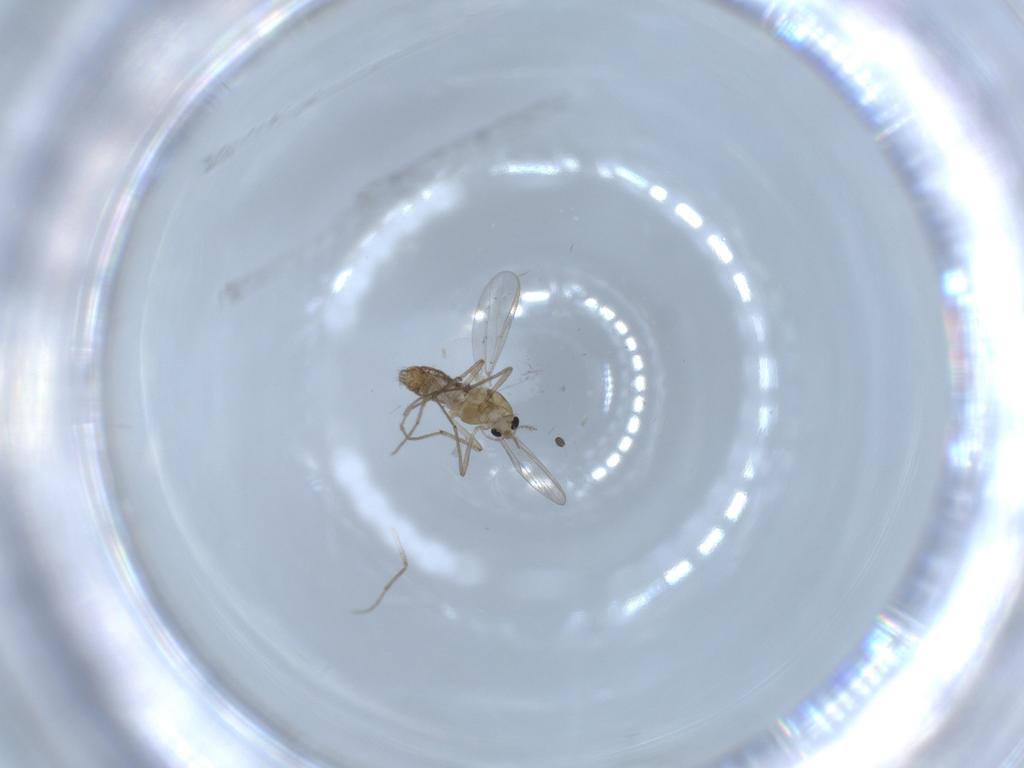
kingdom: Animalia
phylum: Arthropoda
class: Insecta
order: Diptera
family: Chironomidae
